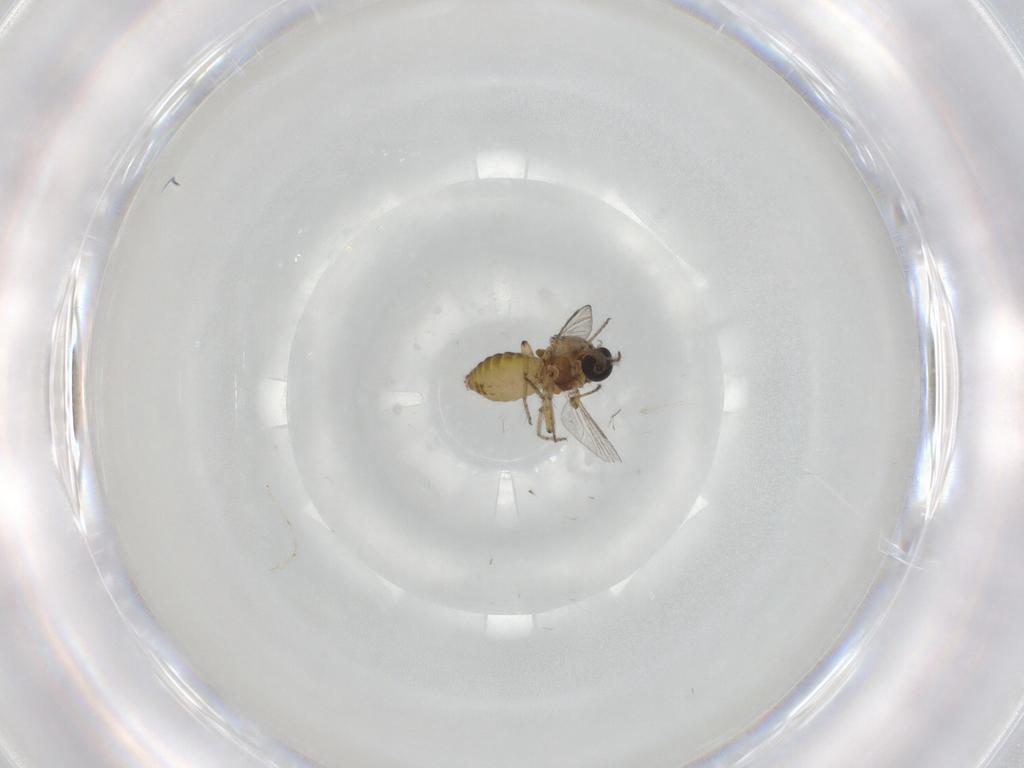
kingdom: Animalia
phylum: Arthropoda
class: Insecta
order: Diptera
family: Ceratopogonidae
